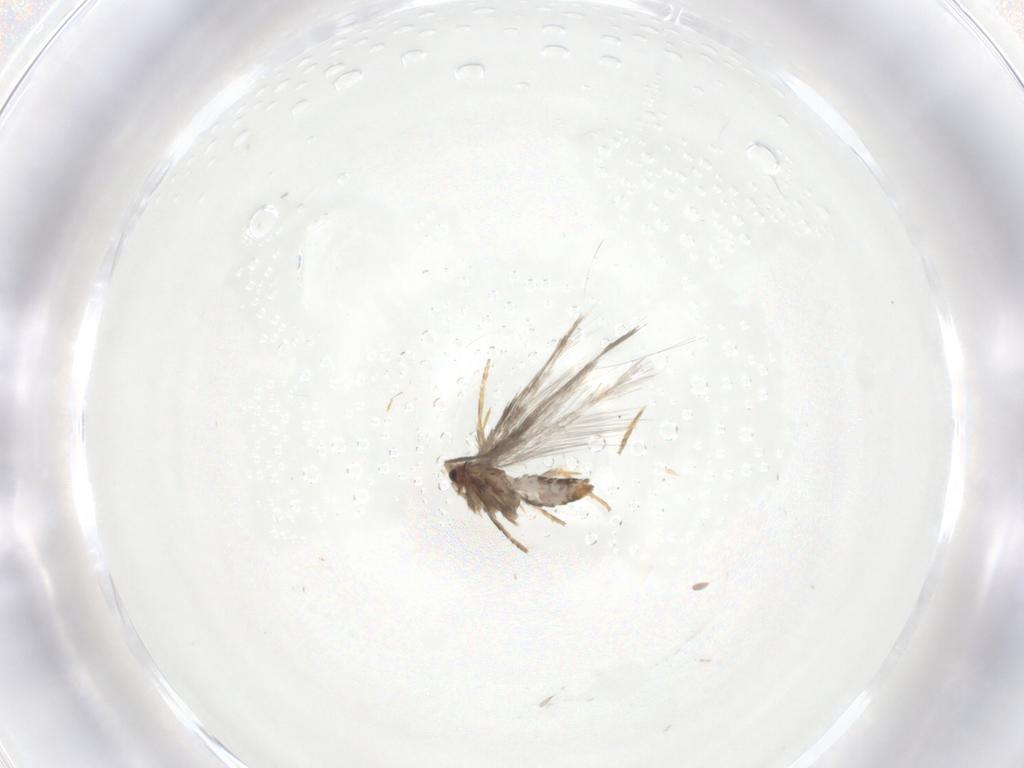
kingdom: Animalia
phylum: Arthropoda
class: Insecta
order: Lepidoptera
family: Nepticulidae
